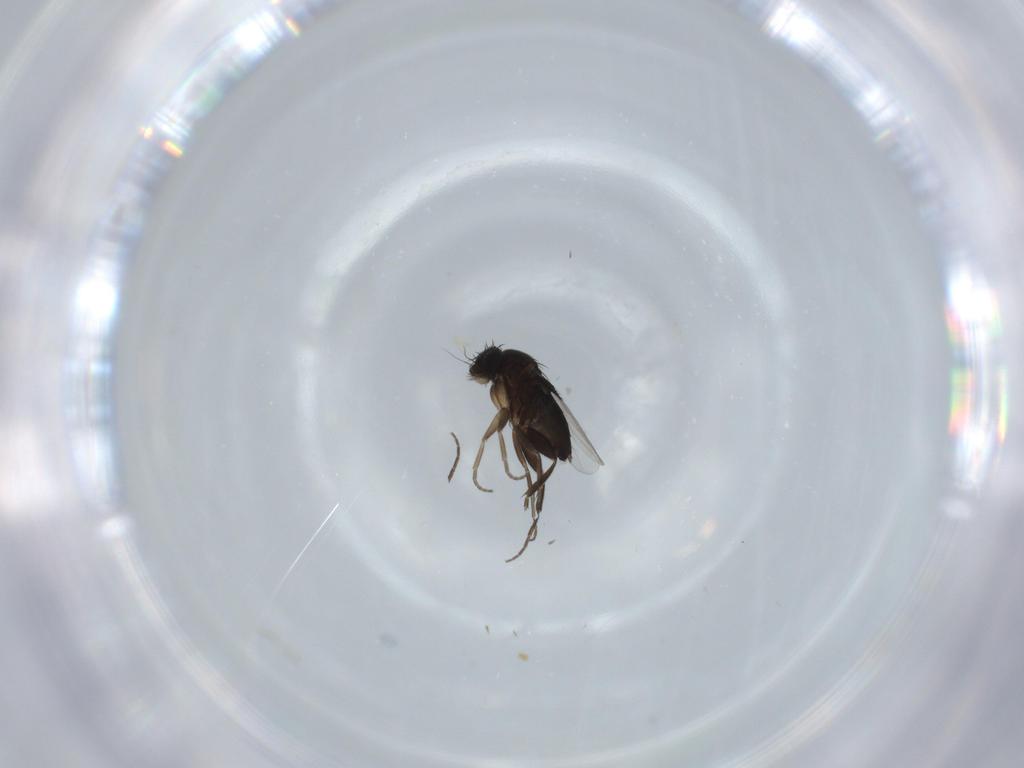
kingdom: Animalia
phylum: Arthropoda
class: Insecta
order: Diptera
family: Phoridae
